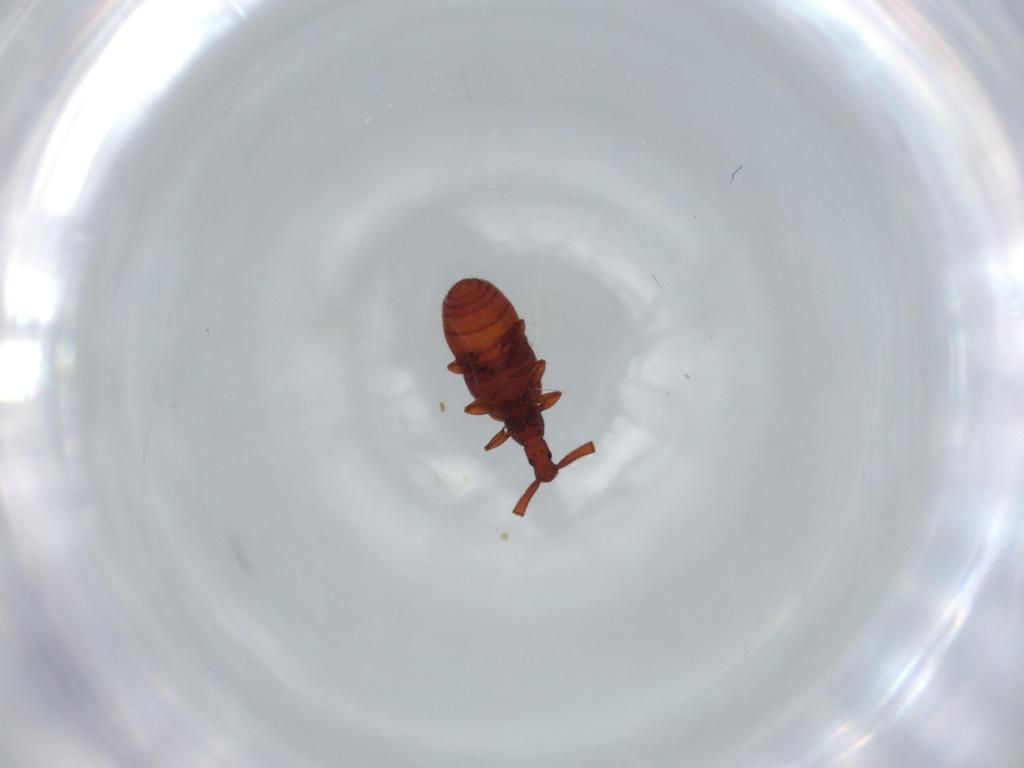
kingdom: Animalia
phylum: Arthropoda
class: Insecta
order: Coleoptera
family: Staphylinidae
